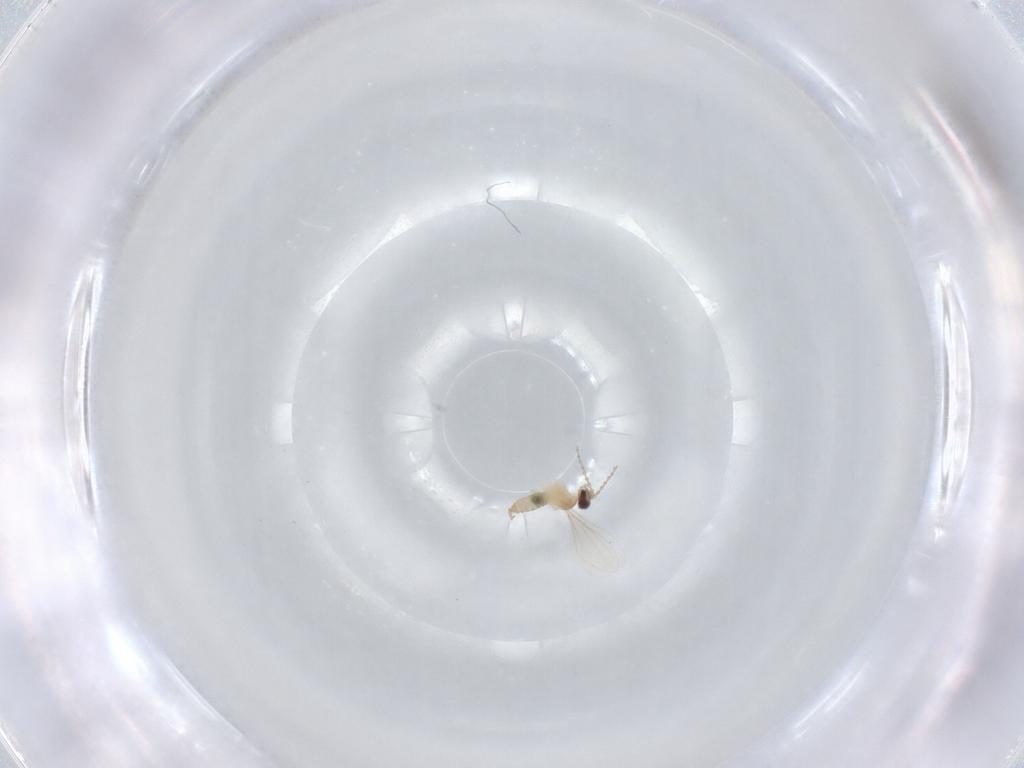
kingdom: Animalia
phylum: Arthropoda
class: Insecta
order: Diptera
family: Cecidomyiidae
